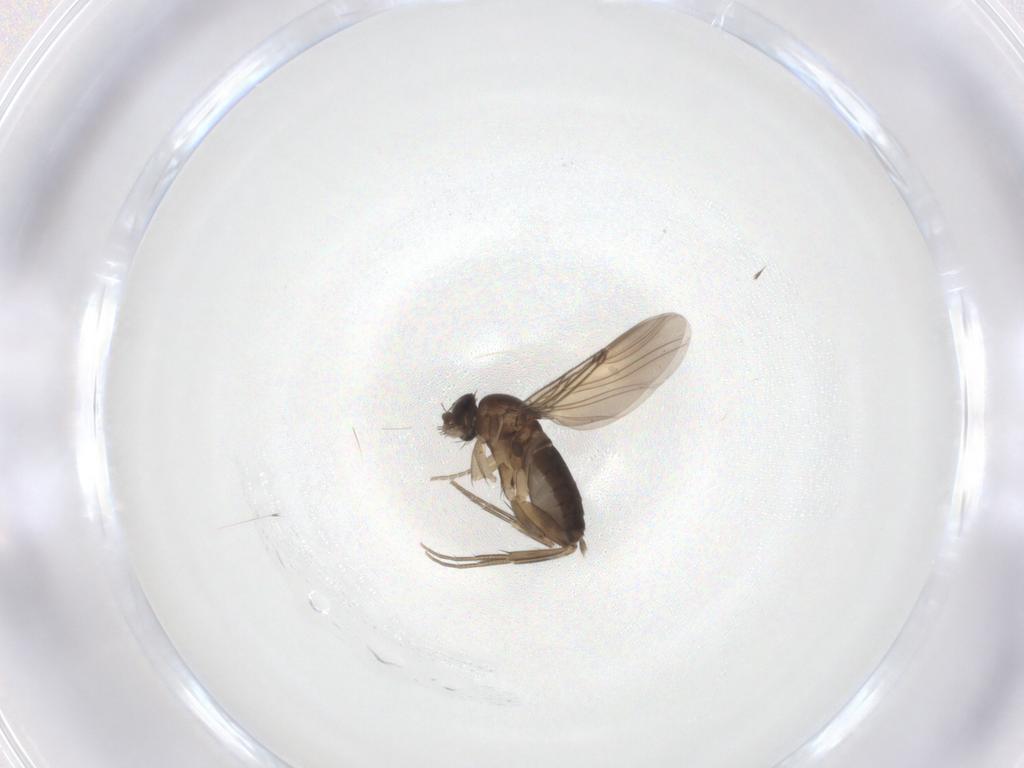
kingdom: Animalia
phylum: Arthropoda
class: Insecta
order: Diptera
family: Phoridae
